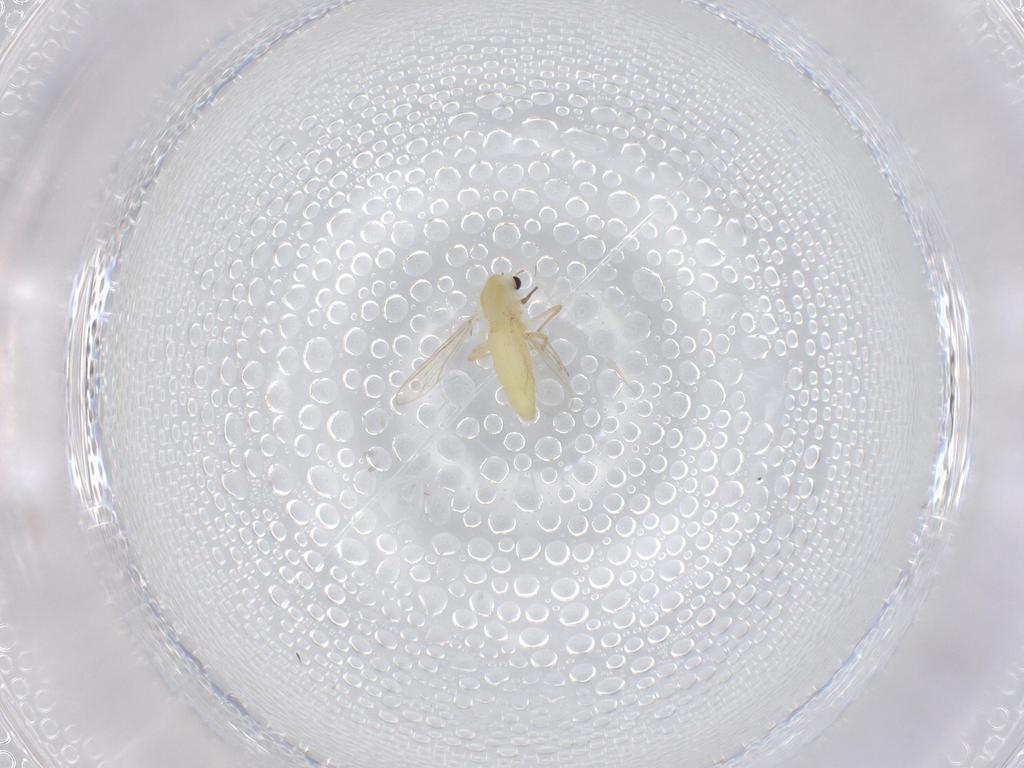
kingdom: Animalia
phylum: Arthropoda
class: Insecta
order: Diptera
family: Chironomidae
